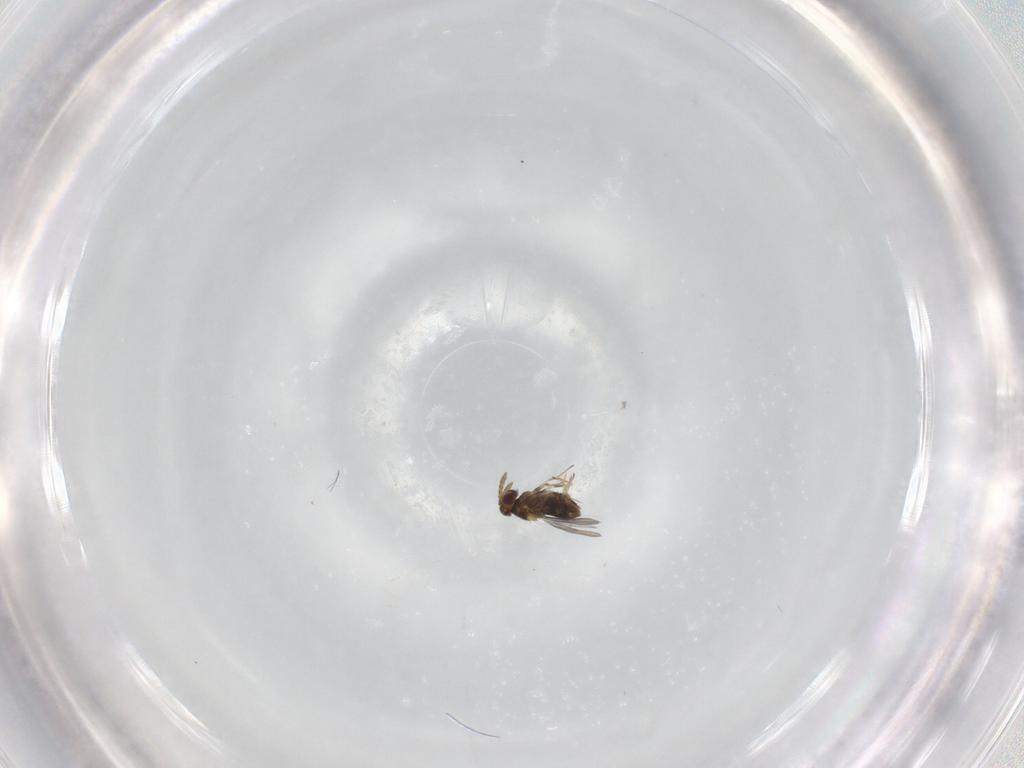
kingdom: Animalia
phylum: Arthropoda
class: Insecta
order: Hymenoptera
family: Aphelinidae
